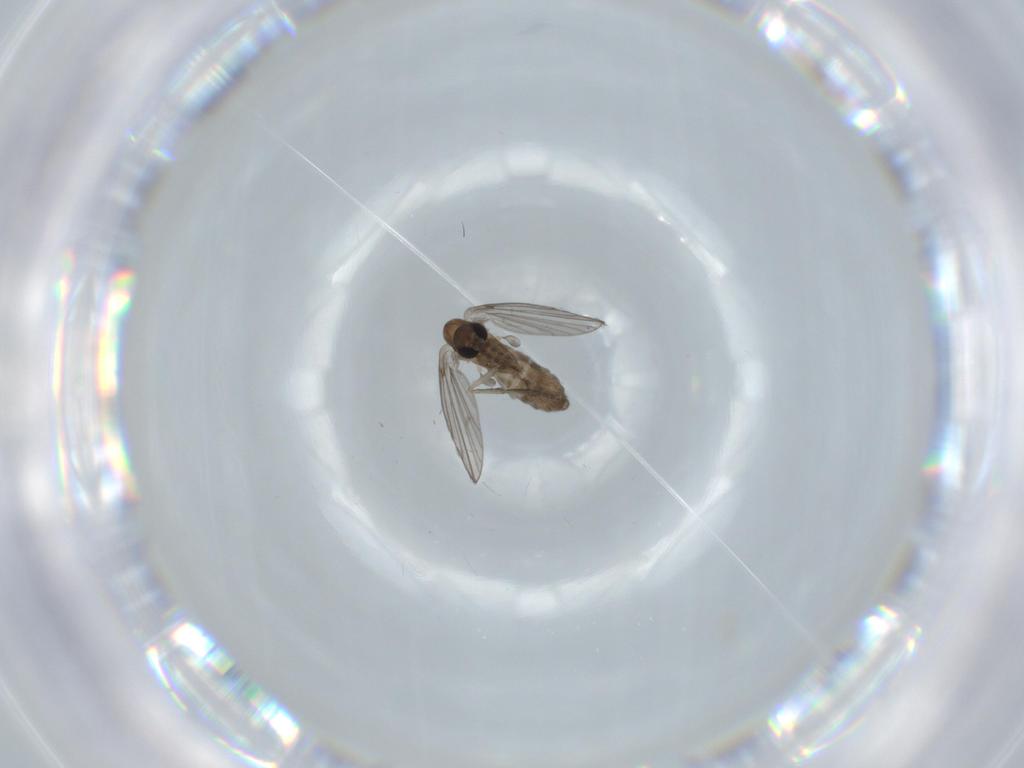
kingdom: Animalia
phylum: Arthropoda
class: Insecta
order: Diptera
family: Psychodidae
